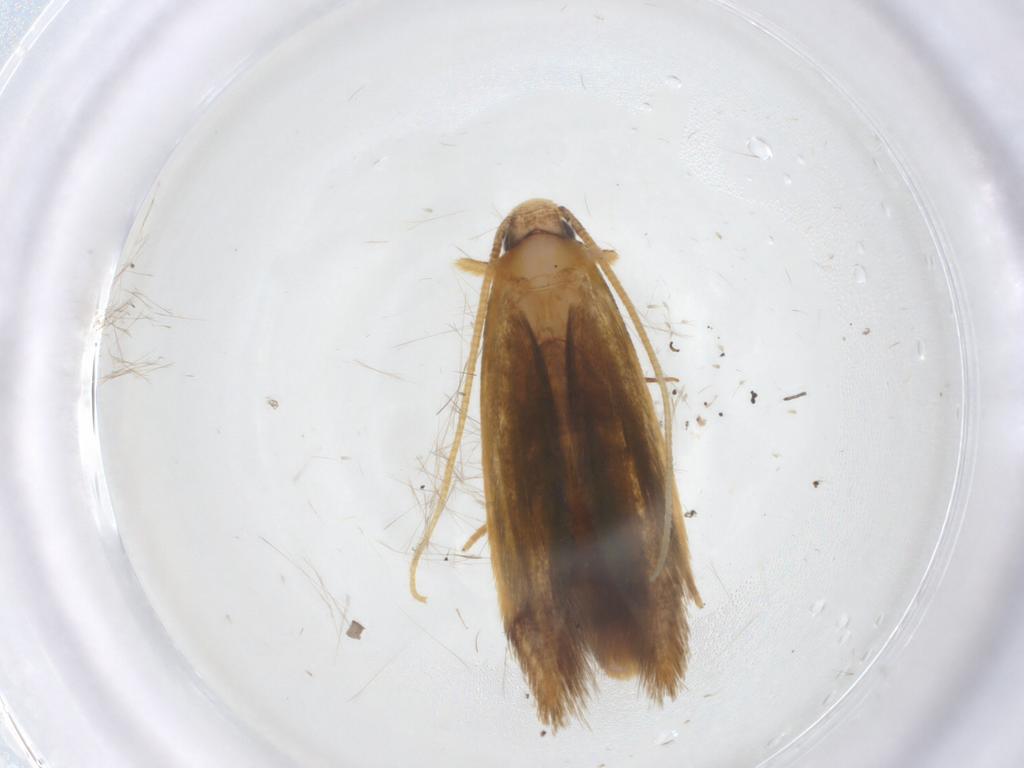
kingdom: Animalia
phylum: Arthropoda
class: Insecta
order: Lepidoptera
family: Tineidae
